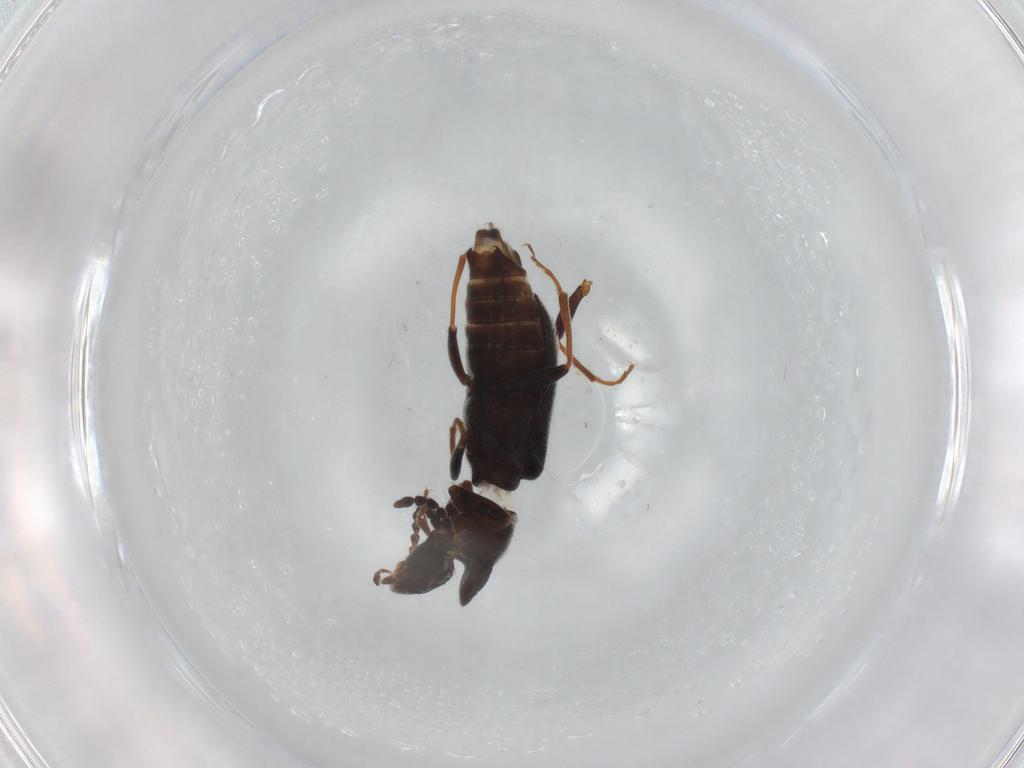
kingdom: Animalia
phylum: Arthropoda
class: Insecta
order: Coleoptera
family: Anthicidae
